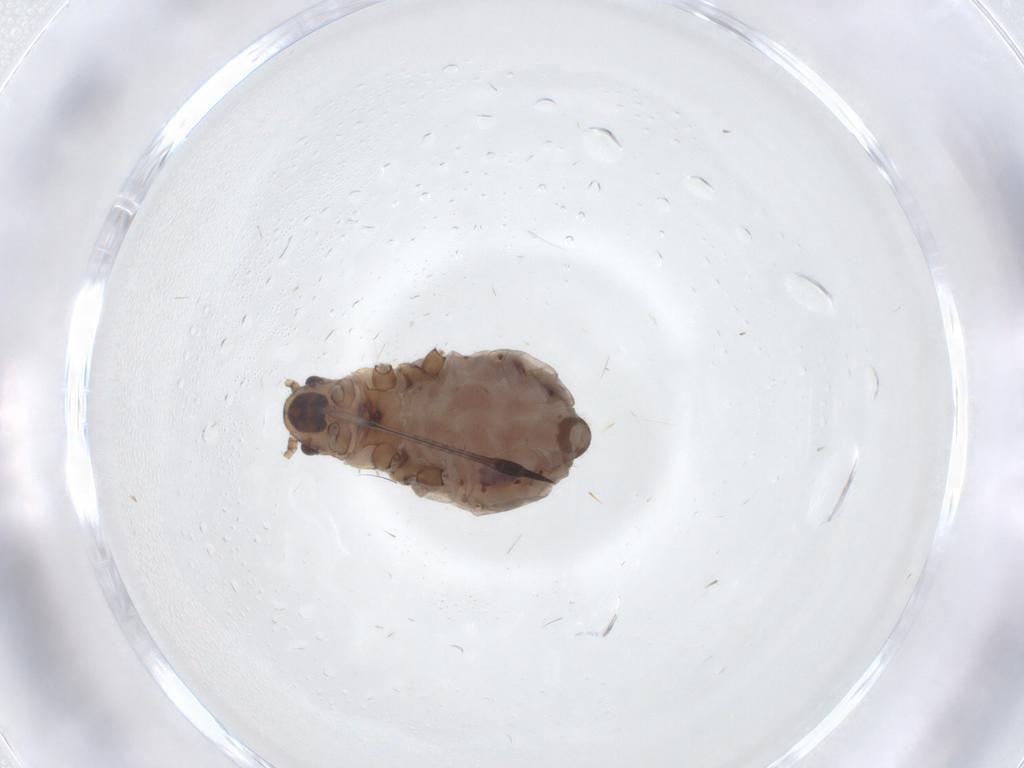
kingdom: Animalia
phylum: Arthropoda
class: Insecta
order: Hemiptera
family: Aphididae
